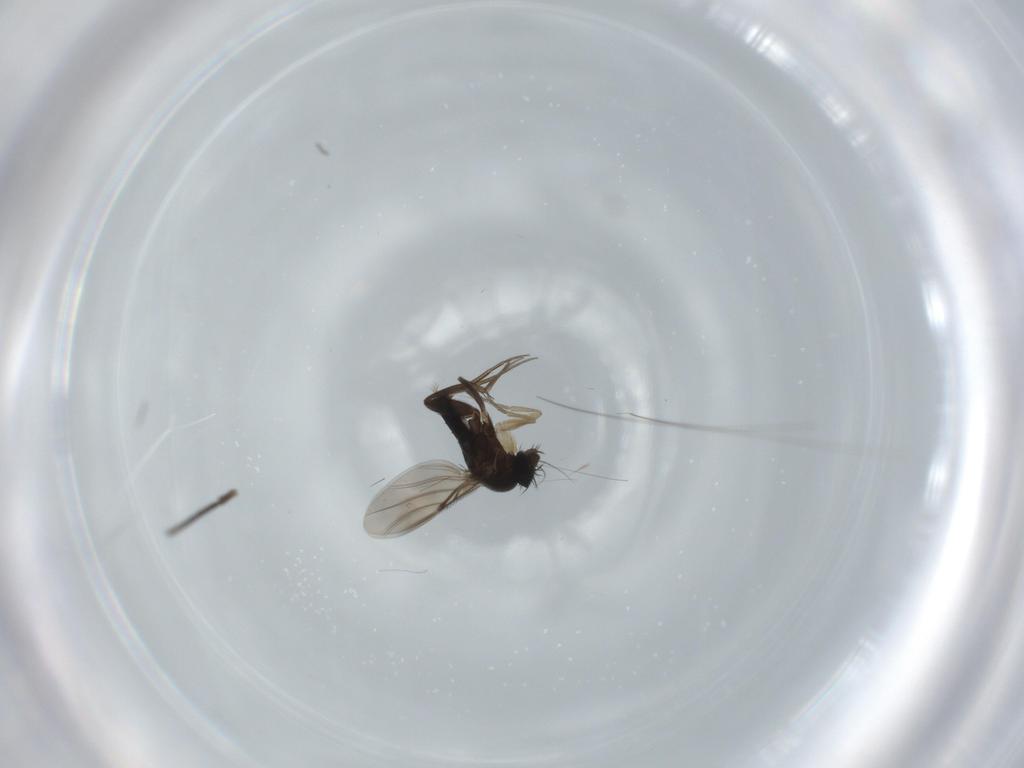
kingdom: Animalia
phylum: Arthropoda
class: Insecta
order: Diptera
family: Phoridae
